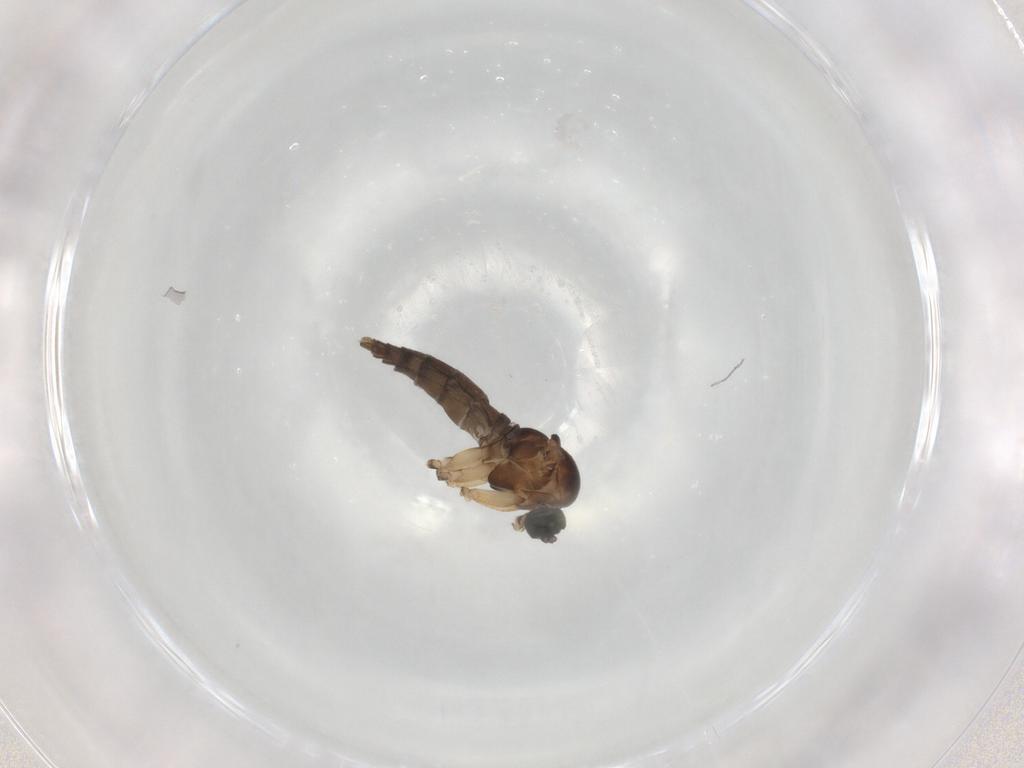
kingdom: Animalia
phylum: Arthropoda
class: Insecta
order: Diptera
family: Sciaridae
